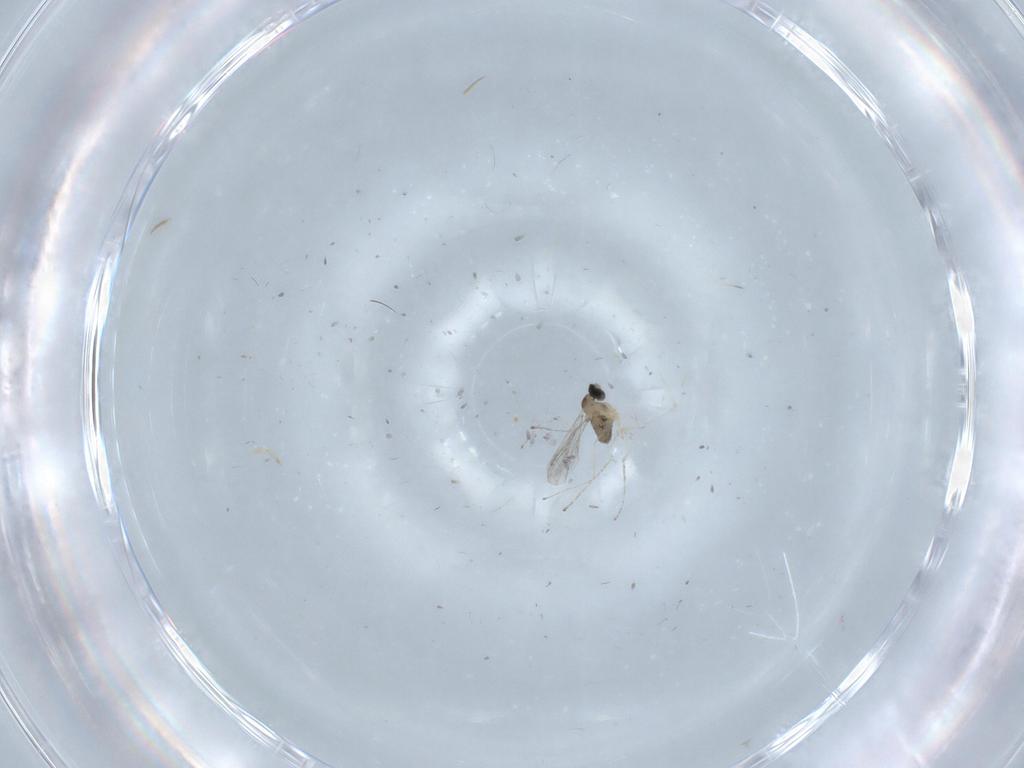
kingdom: Animalia
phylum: Arthropoda
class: Insecta
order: Diptera
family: Cecidomyiidae
